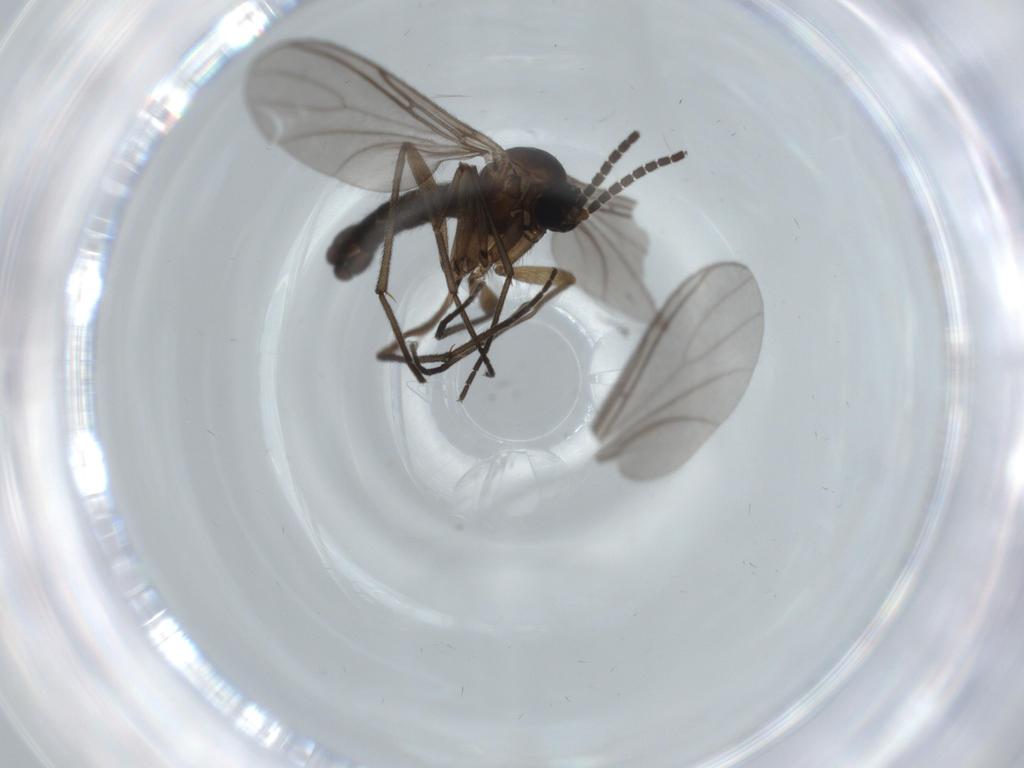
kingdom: Animalia
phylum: Arthropoda
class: Insecta
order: Diptera
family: Sciaridae
